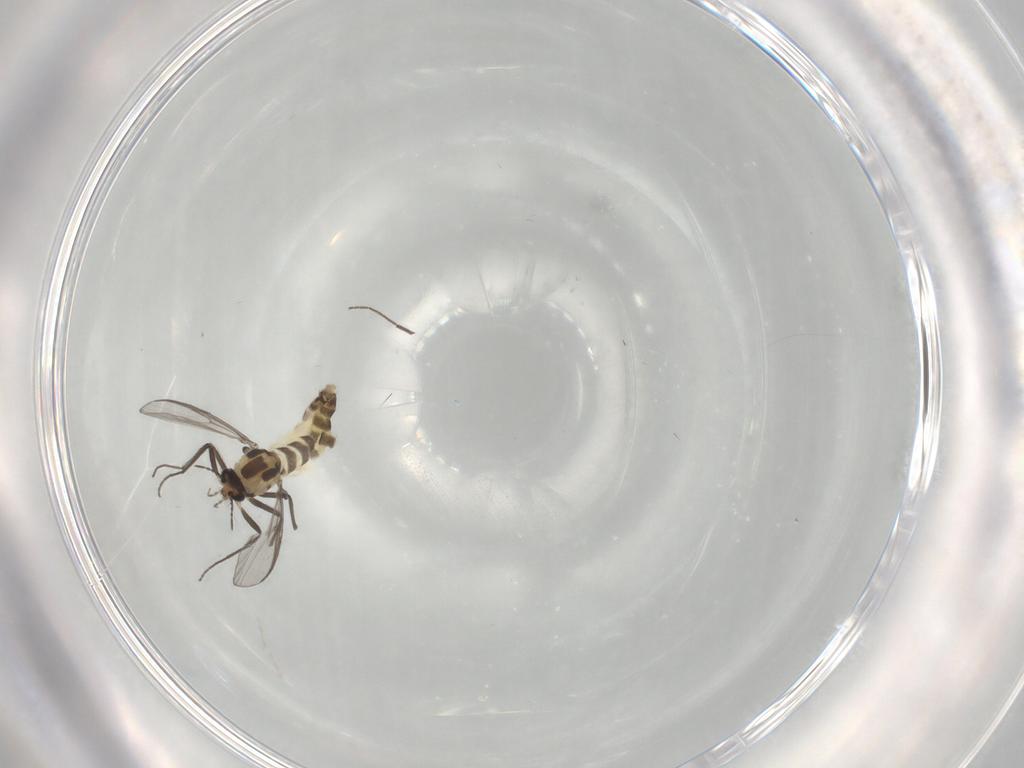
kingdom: Animalia
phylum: Arthropoda
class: Insecta
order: Diptera
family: Chironomidae
